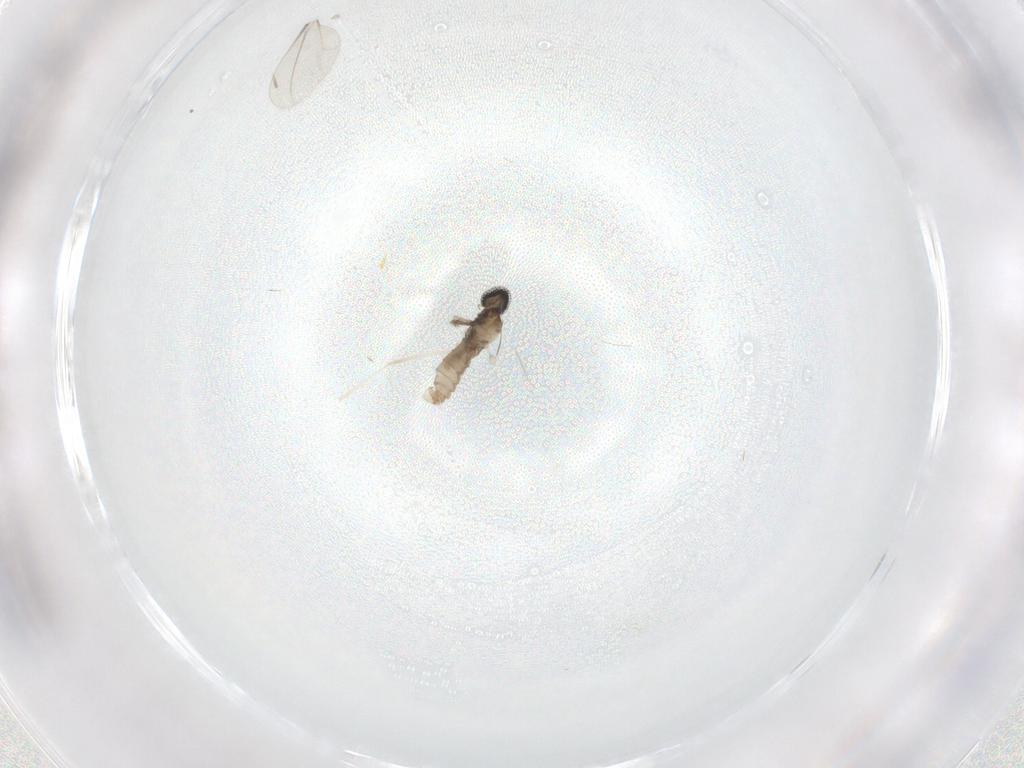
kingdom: Animalia
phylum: Arthropoda
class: Insecta
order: Diptera
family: Cecidomyiidae
